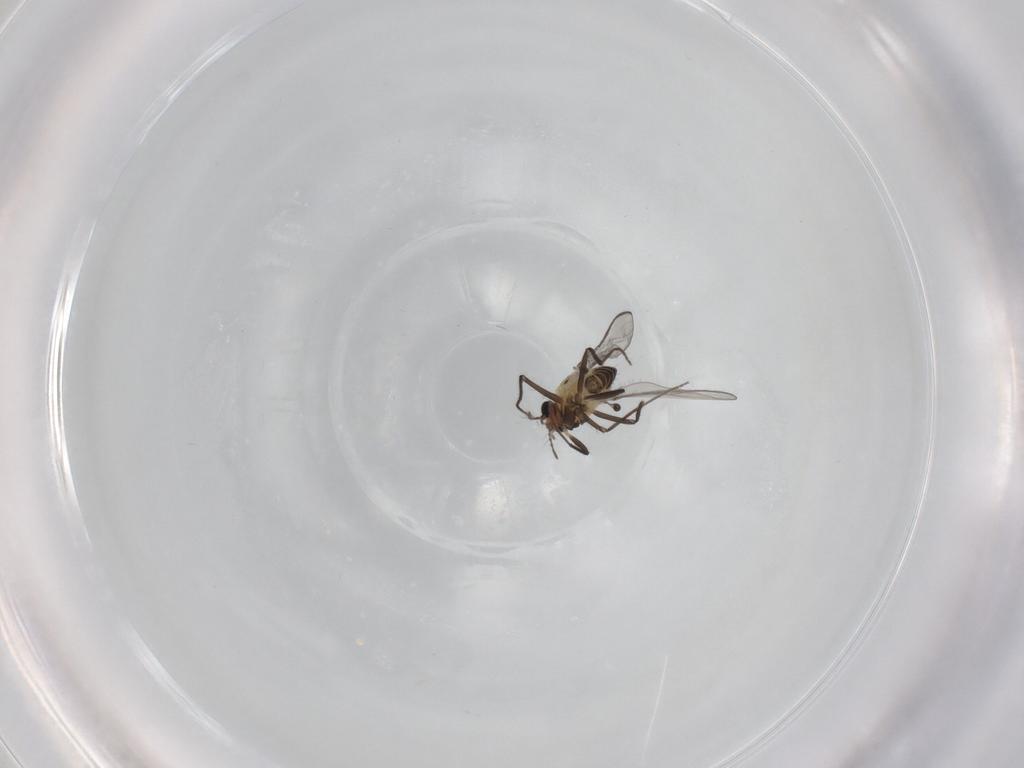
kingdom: Animalia
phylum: Arthropoda
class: Insecta
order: Diptera
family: Chironomidae
